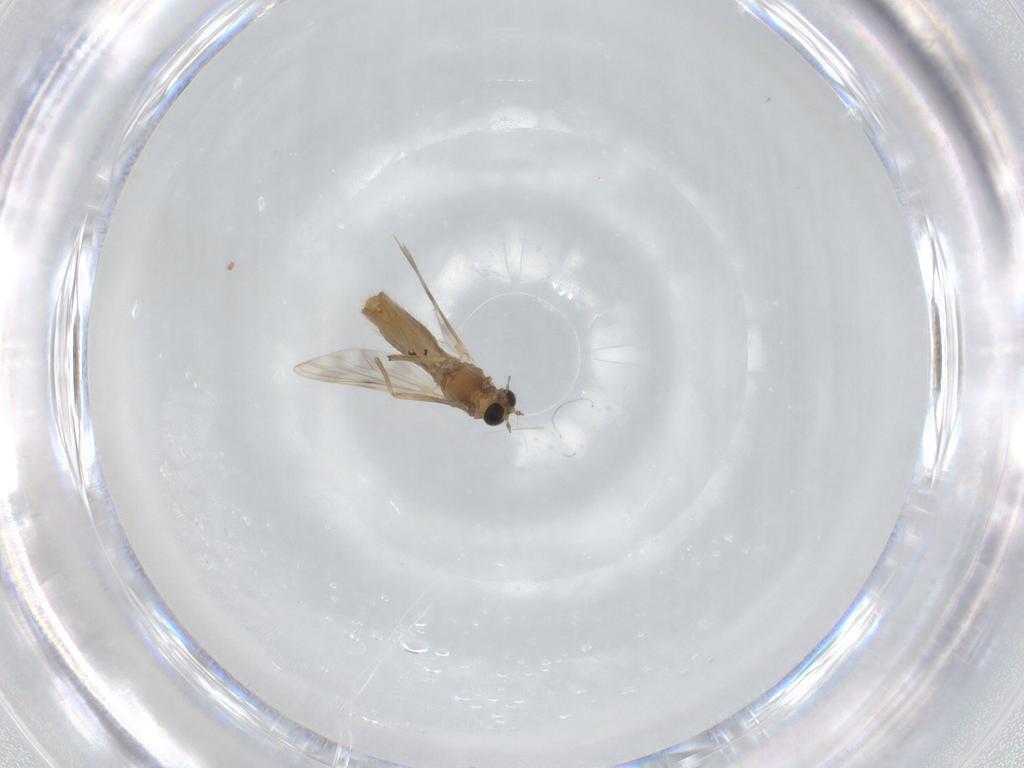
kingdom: Animalia
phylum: Arthropoda
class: Insecta
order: Diptera
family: Chironomidae
